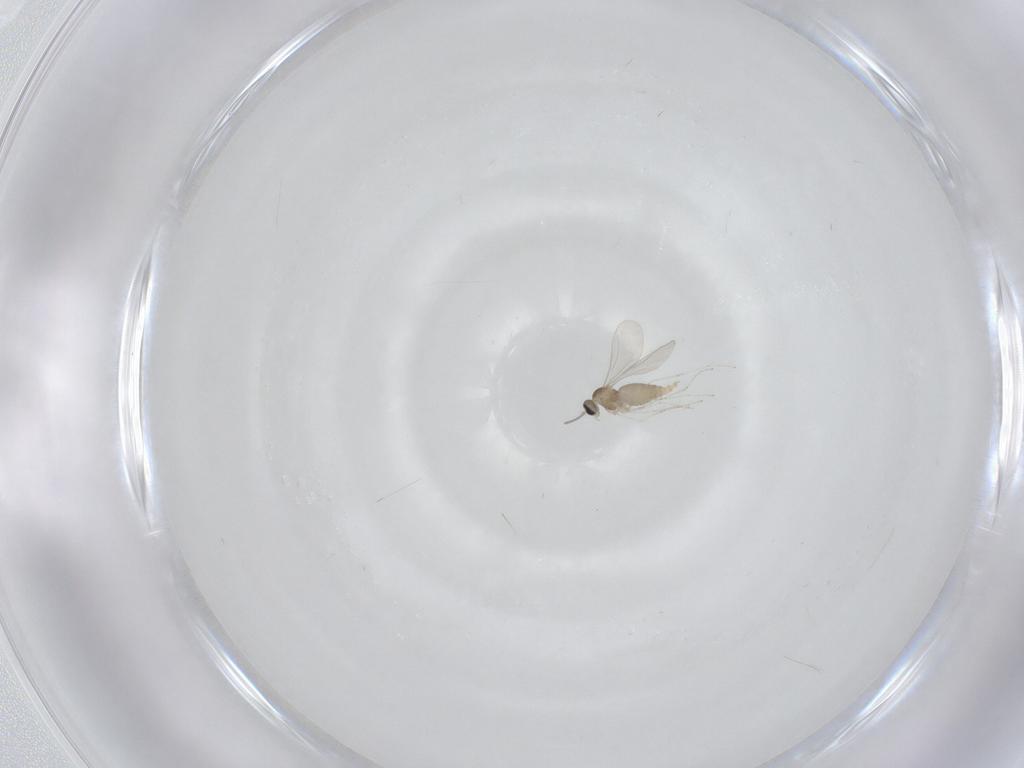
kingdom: Animalia
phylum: Arthropoda
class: Insecta
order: Diptera
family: Cecidomyiidae
